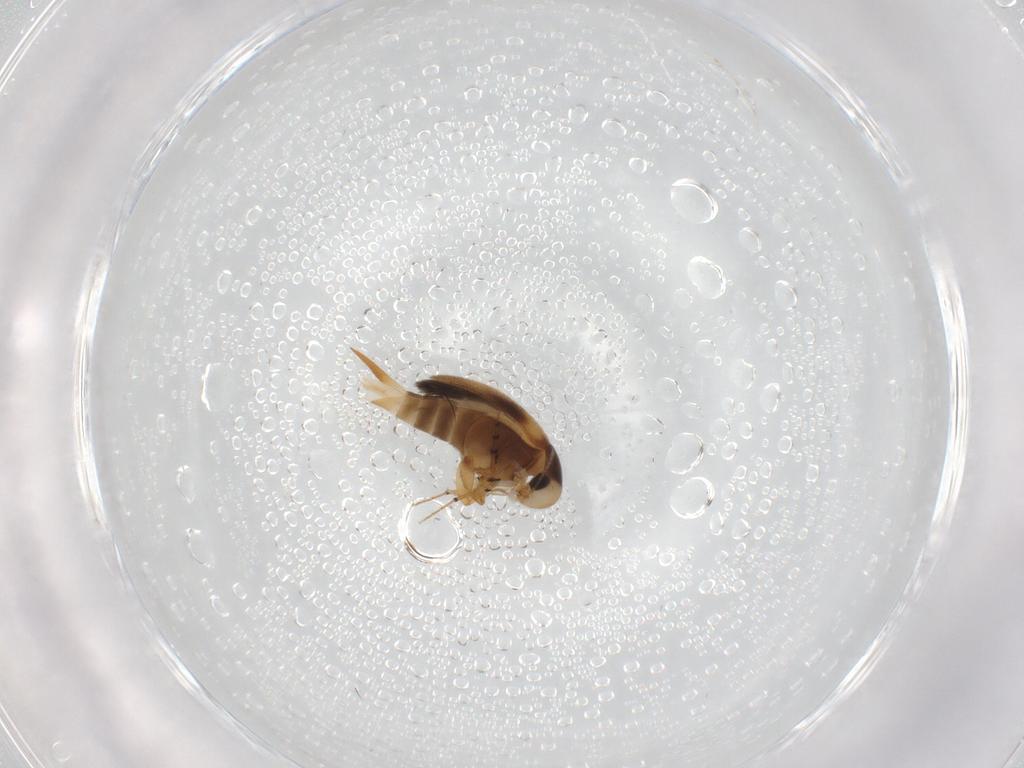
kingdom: Animalia
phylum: Arthropoda
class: Insecta
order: Coleoptera
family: Mordellidae
